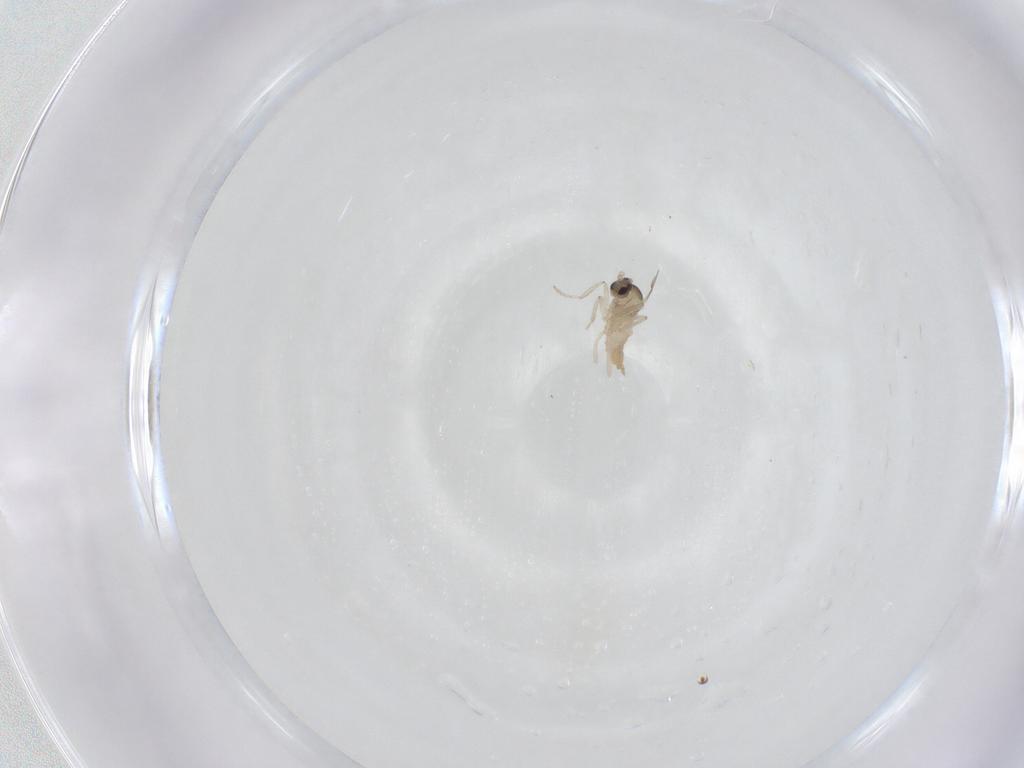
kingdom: Animalia
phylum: Arthropoda
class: Insecta
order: Diptera
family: Cecidomyiidae
